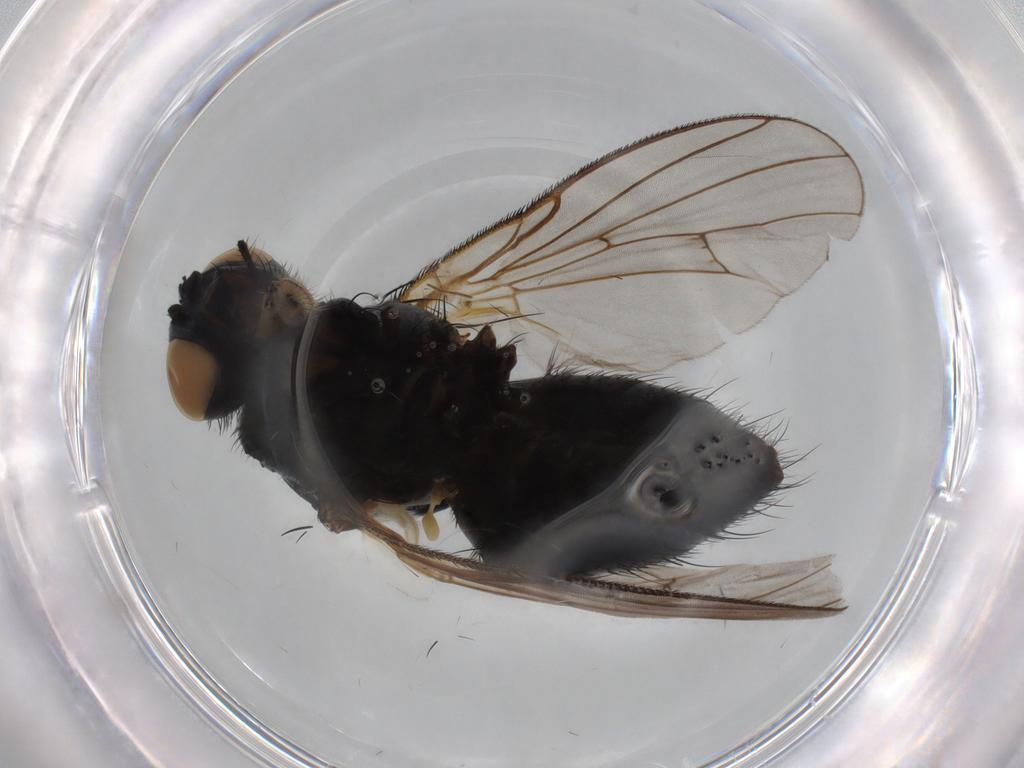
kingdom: Animalia
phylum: Arthropoda
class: Insecta
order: Diptera
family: Muscidae
